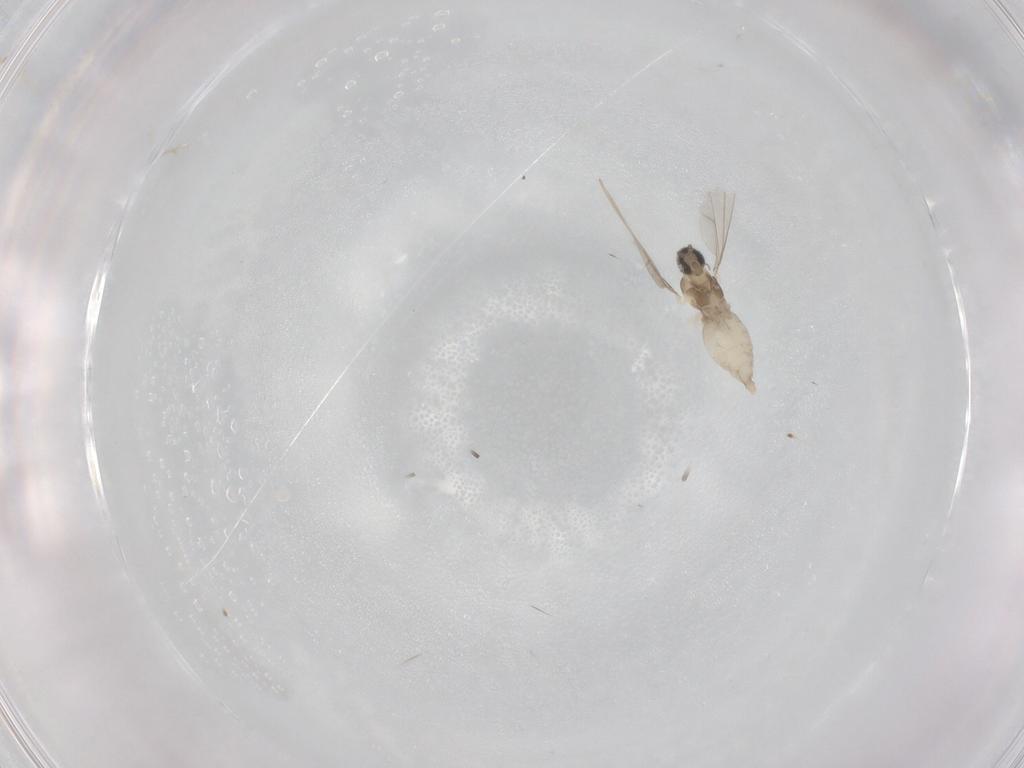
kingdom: Animalia
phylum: Arthropoda
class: Insecta
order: Diptera
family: Cecidomyiidae
